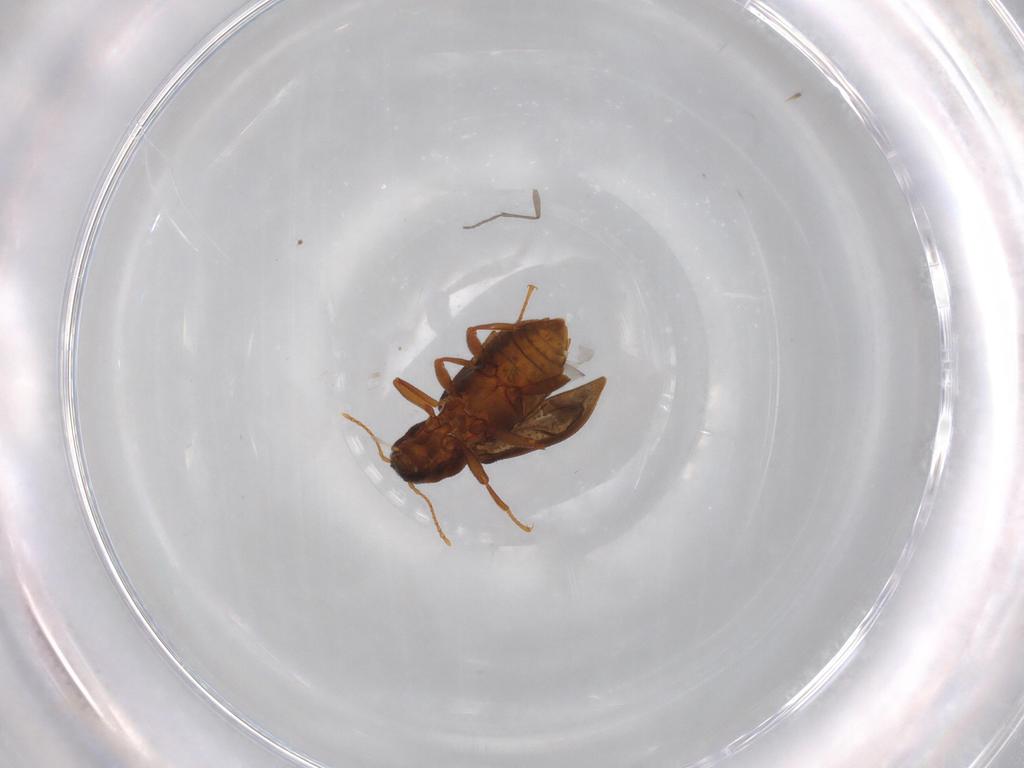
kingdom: Animalia
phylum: Arthropoda
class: Insecta
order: Coleoptera
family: Elmidae
